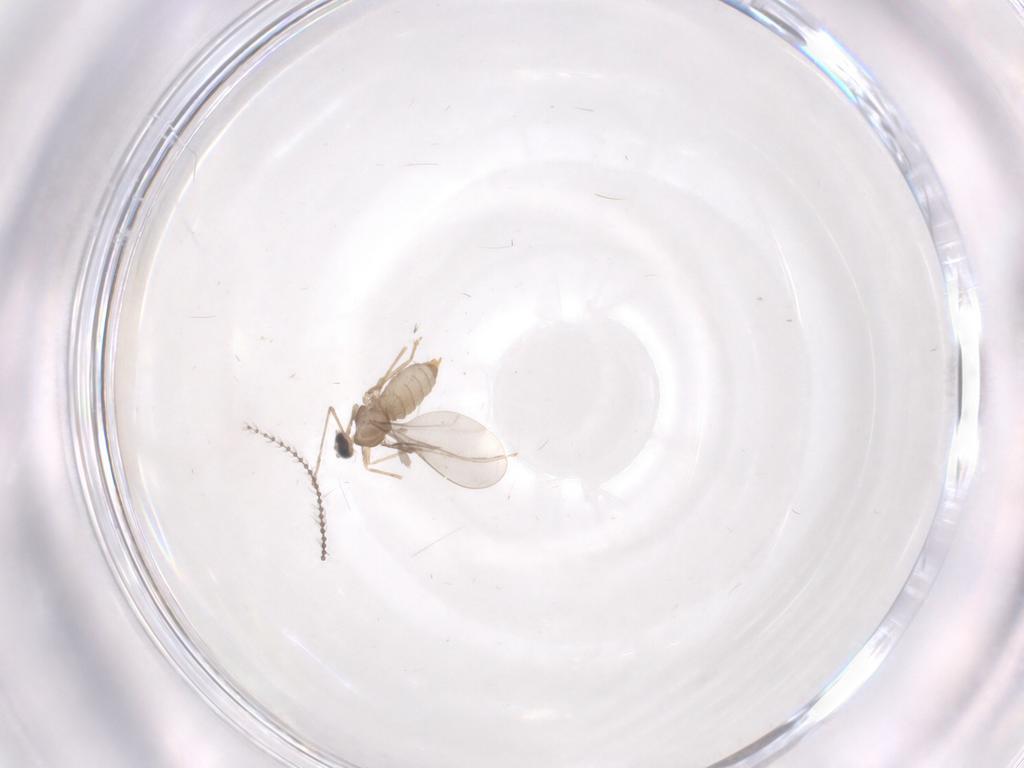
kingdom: Animalia
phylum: Arthropoda
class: Insecta
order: Diptera
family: Cecidomyiidae
